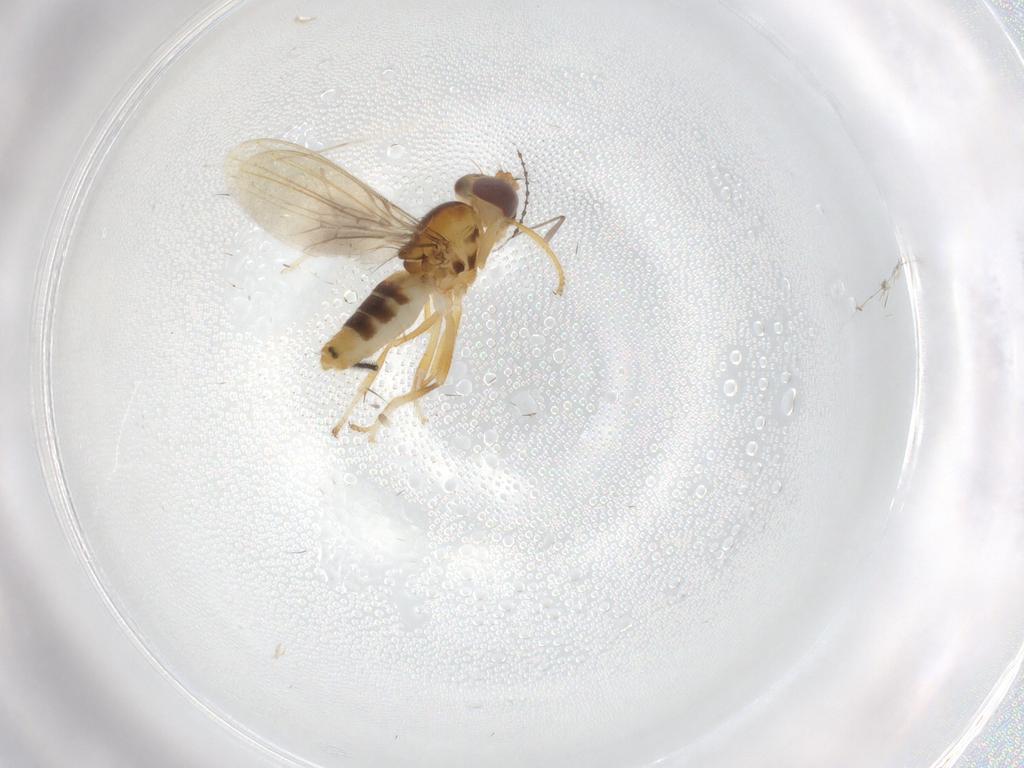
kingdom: Animalia
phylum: Arthropoda
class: Insecta
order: Diptera
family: Periscelididae
